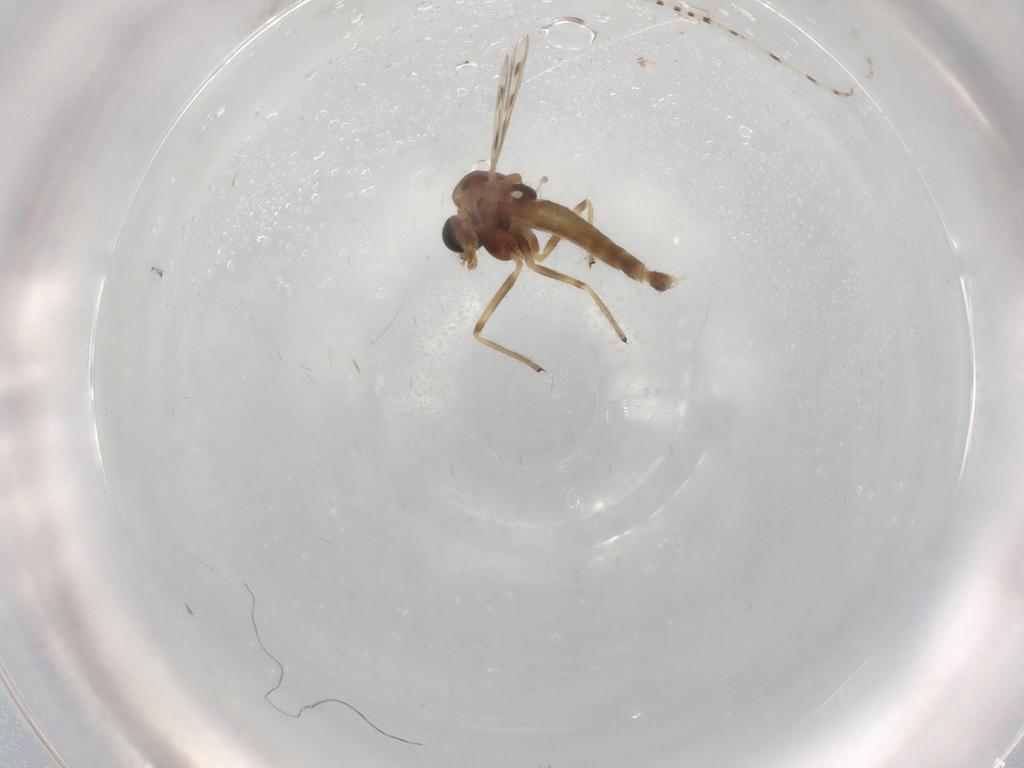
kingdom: Animalia
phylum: Arthropoda
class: Insecta
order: Diptera
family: Chironomidae
